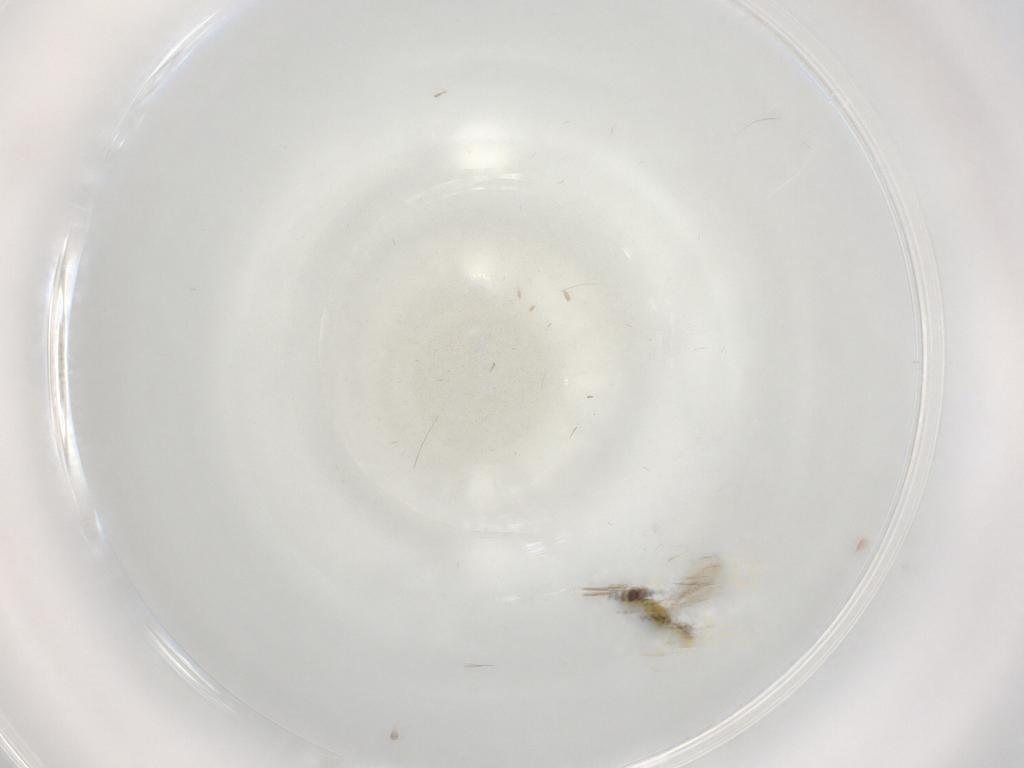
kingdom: Animalia
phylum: Arthropoda
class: Insecta
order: Hymenoptera
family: Eulophidae
